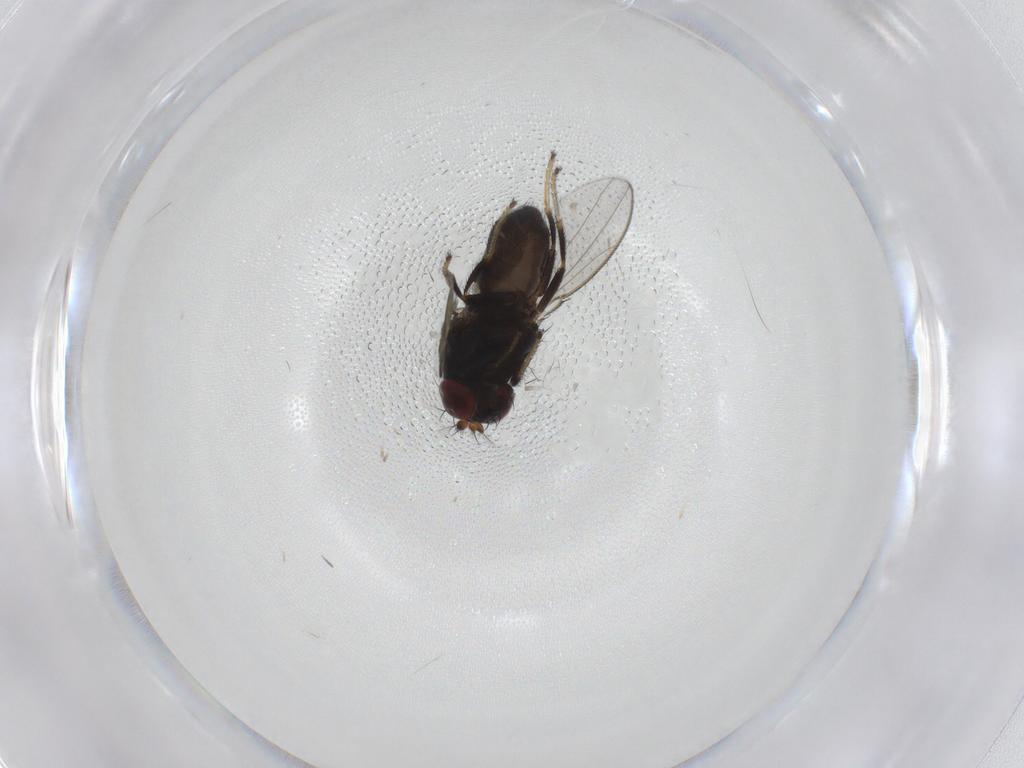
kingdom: Animalia
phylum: Arthropoda
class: Insecta
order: Diptera
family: Ephydridae
